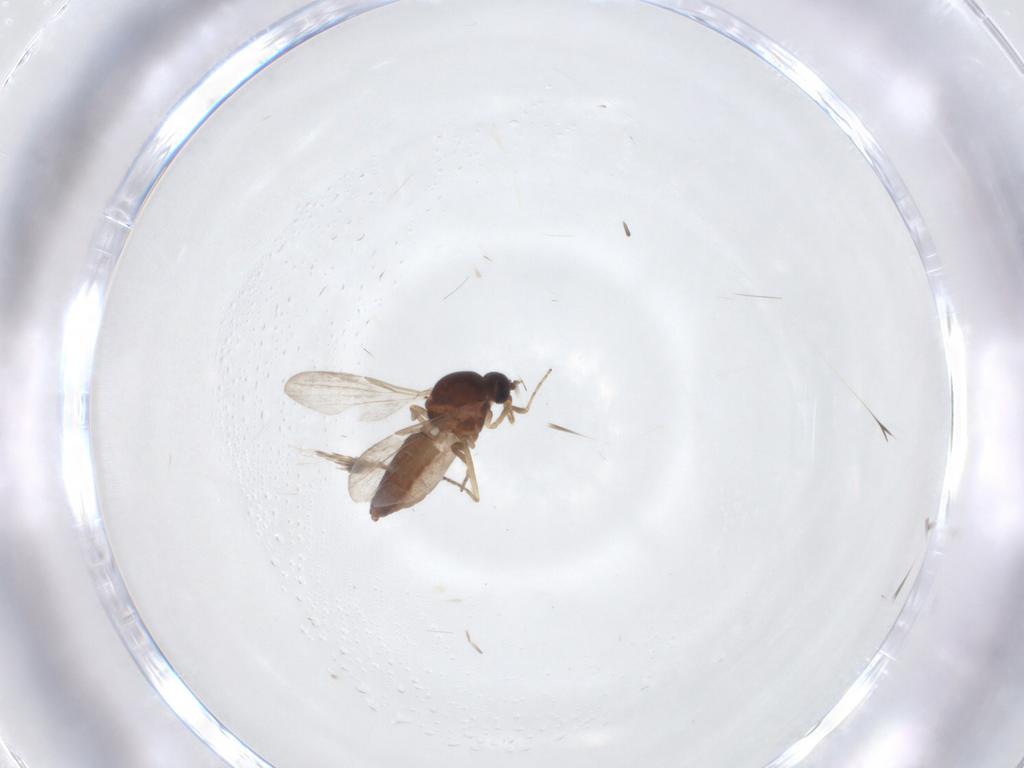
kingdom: Animalia
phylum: Arthropoda
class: Insecta
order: Diptera
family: Ceratopogonidae
